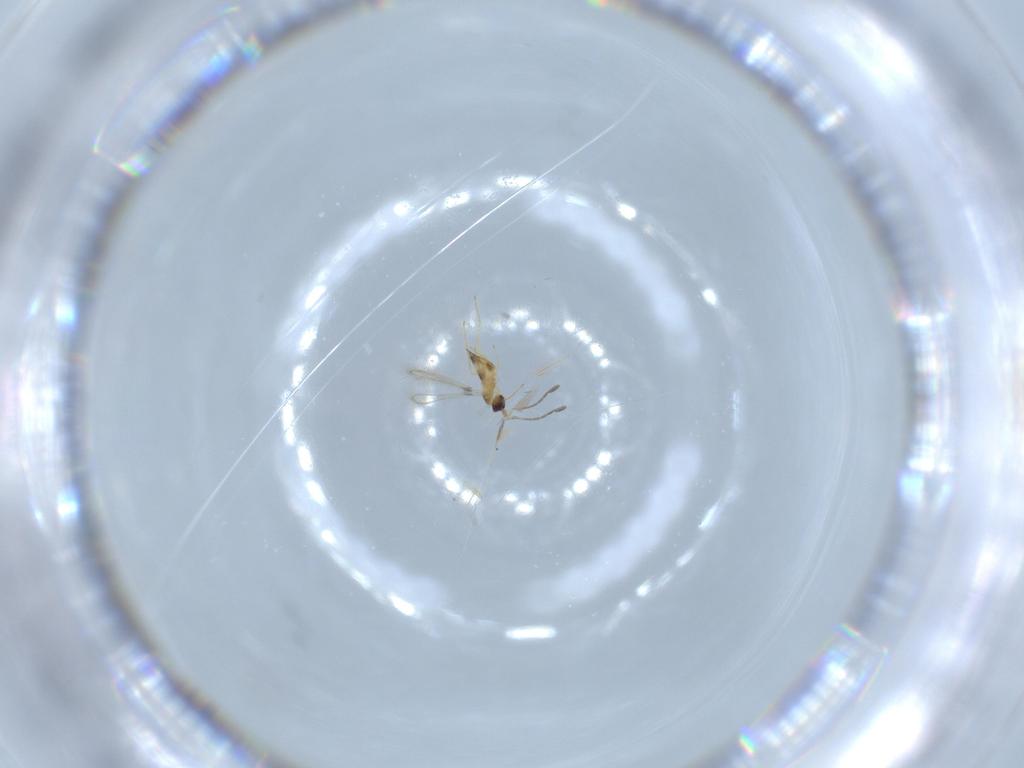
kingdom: Animalia
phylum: Arthropoda
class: Insecta
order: Hymenoptera
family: Mymaridae
